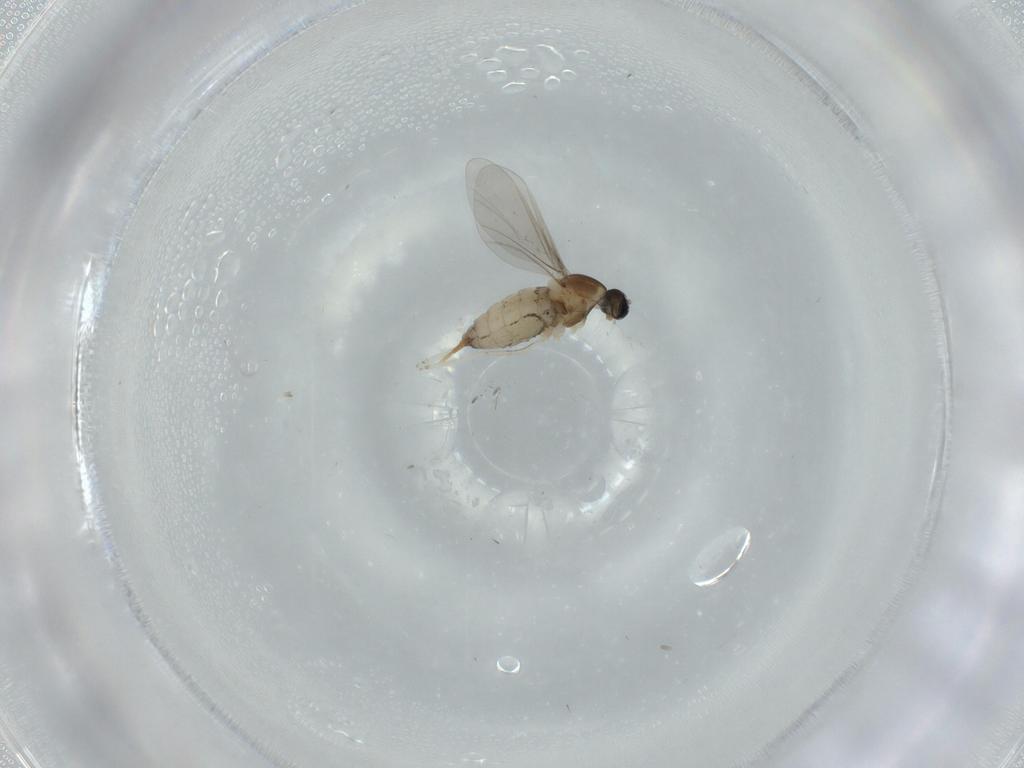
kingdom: Animalia
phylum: Arthropoda
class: Insecta
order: Diptera
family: Cecidomyiidae
